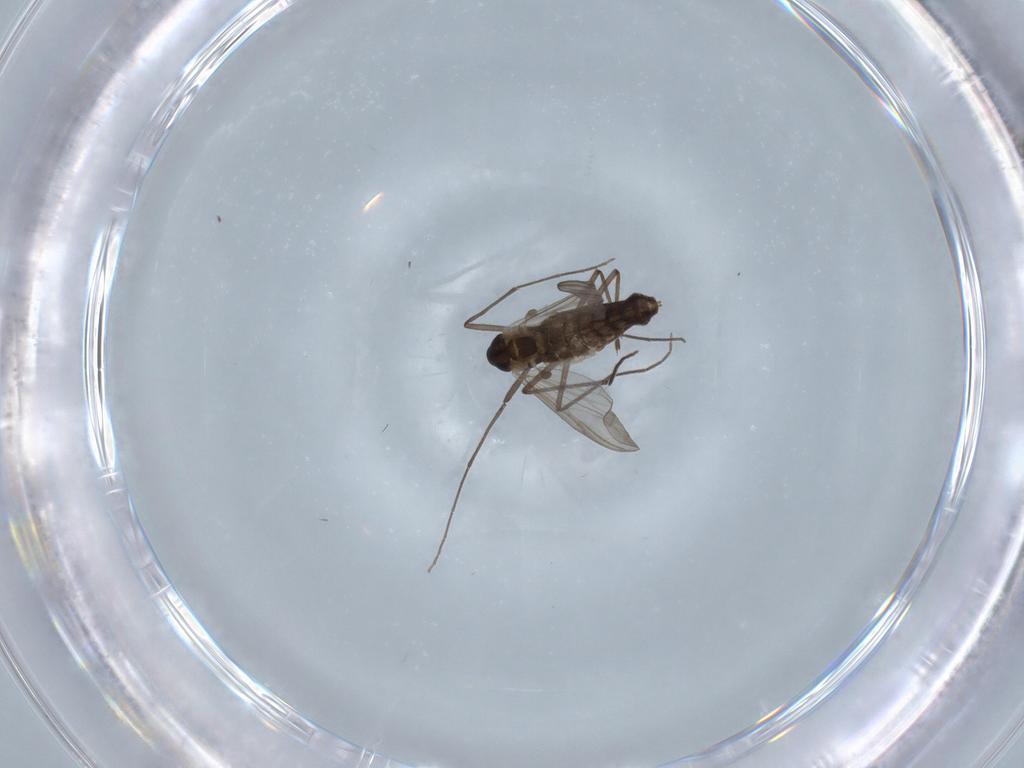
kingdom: Animalia
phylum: Arthropoda
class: Insecta
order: Diptera
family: Chironomidae
